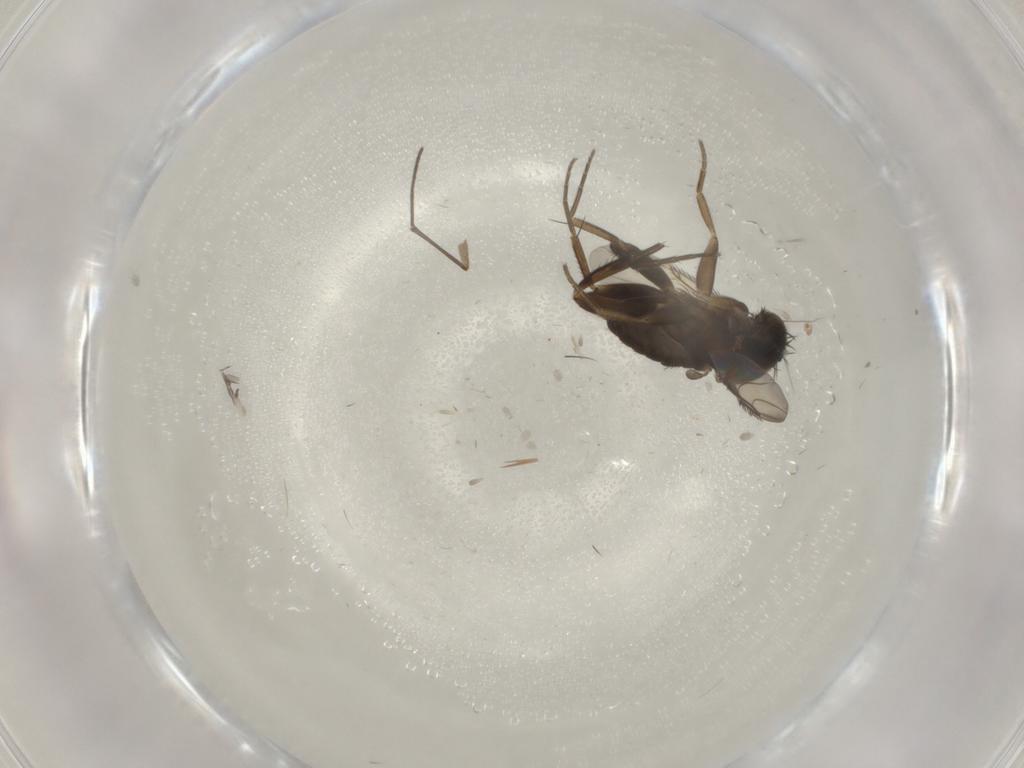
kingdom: Animalia
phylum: Arthropoda
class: Insecta
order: Diptera
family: Phoridae
